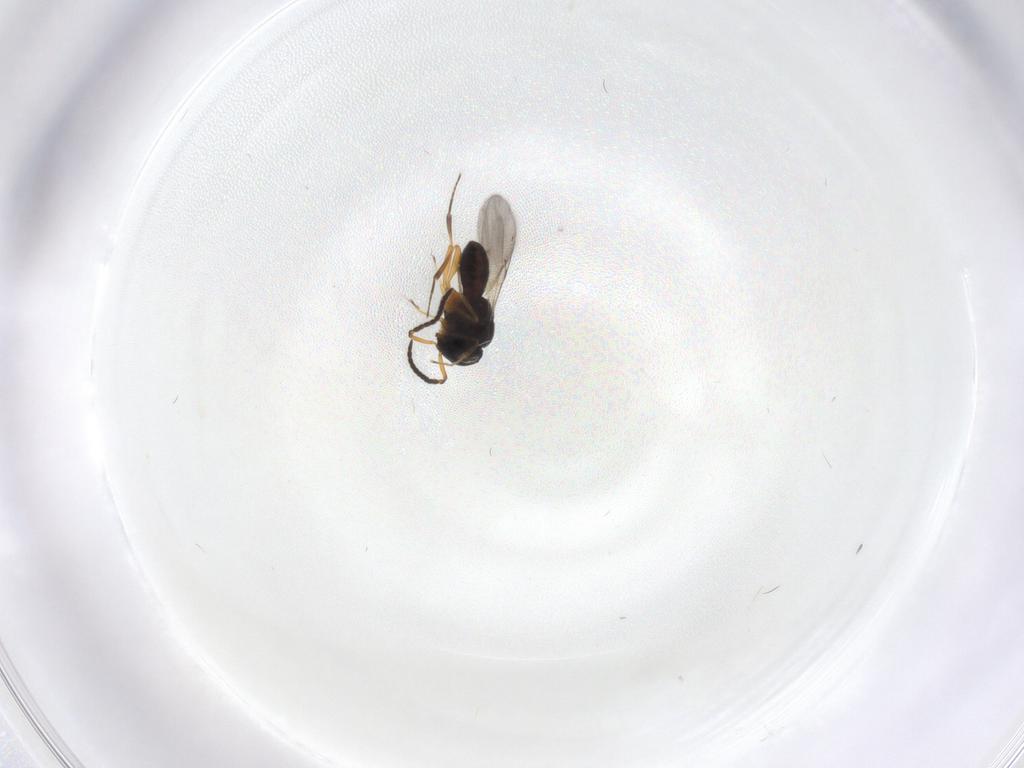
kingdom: Animalia
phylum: Arthropoda
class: Insecta
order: Hymenoptera
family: Scelionidae
